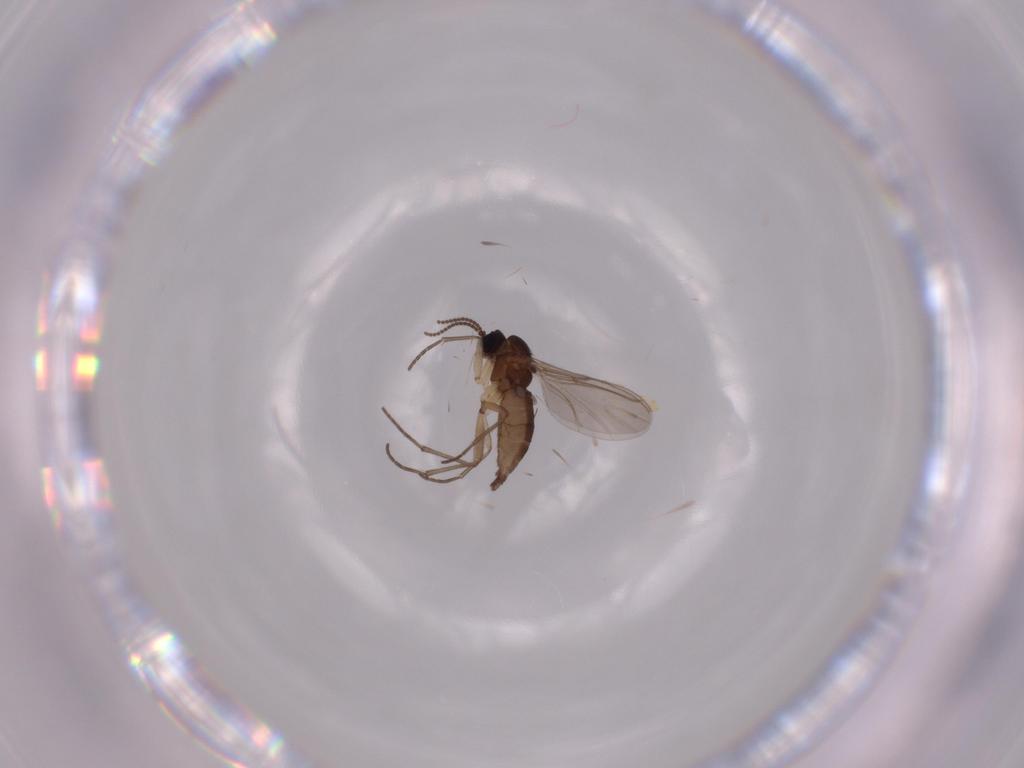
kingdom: Animalia
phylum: Arthropoda
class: Insecta
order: Diptera
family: Sciaridae
